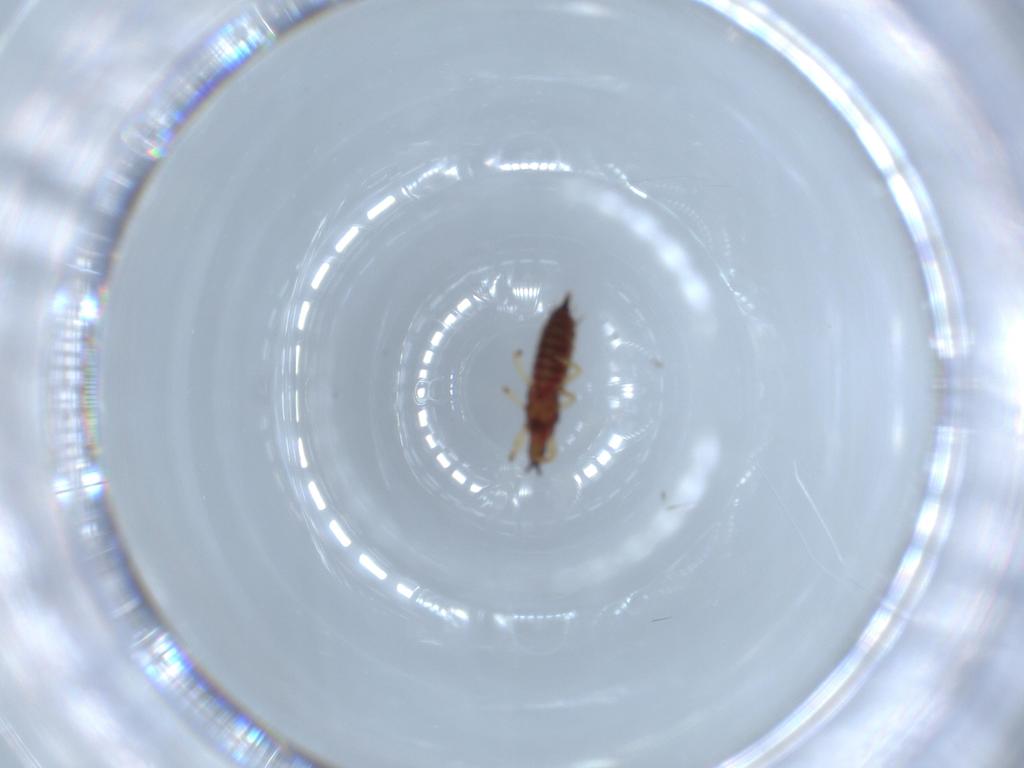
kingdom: Animalia
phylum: Arthropoda
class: Insecta
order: Thysanoptera
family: Phlaeothripidae
